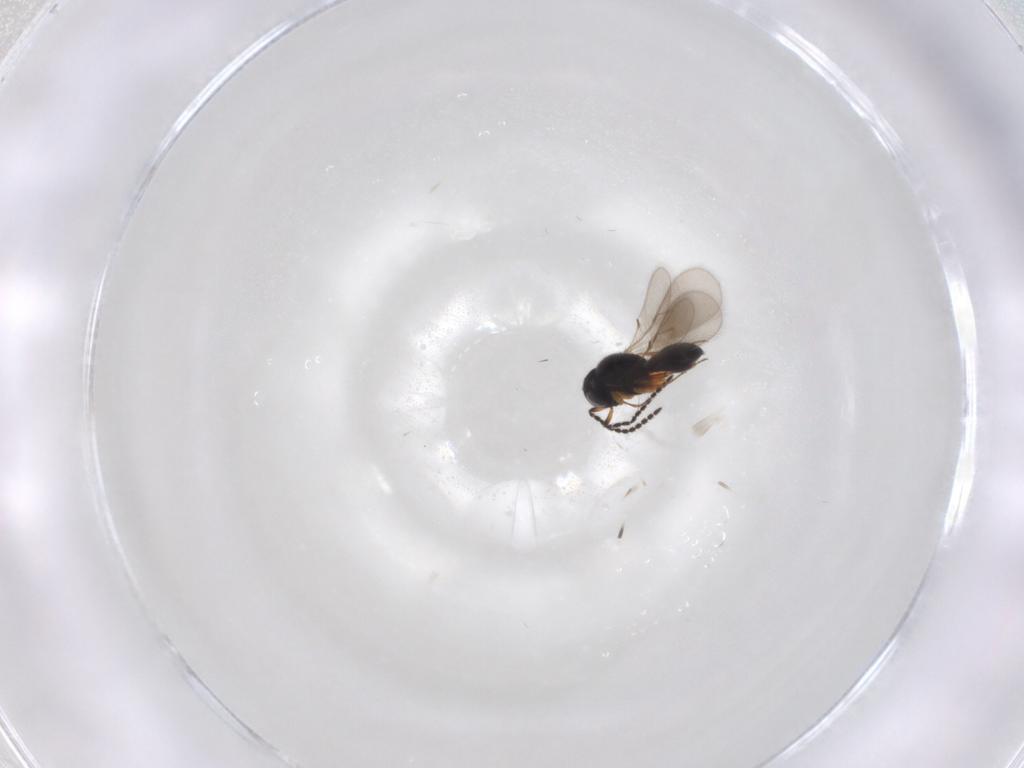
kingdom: Animalia
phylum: Arthropoda
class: Insecta
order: Hymenoptera
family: Scelionidae
